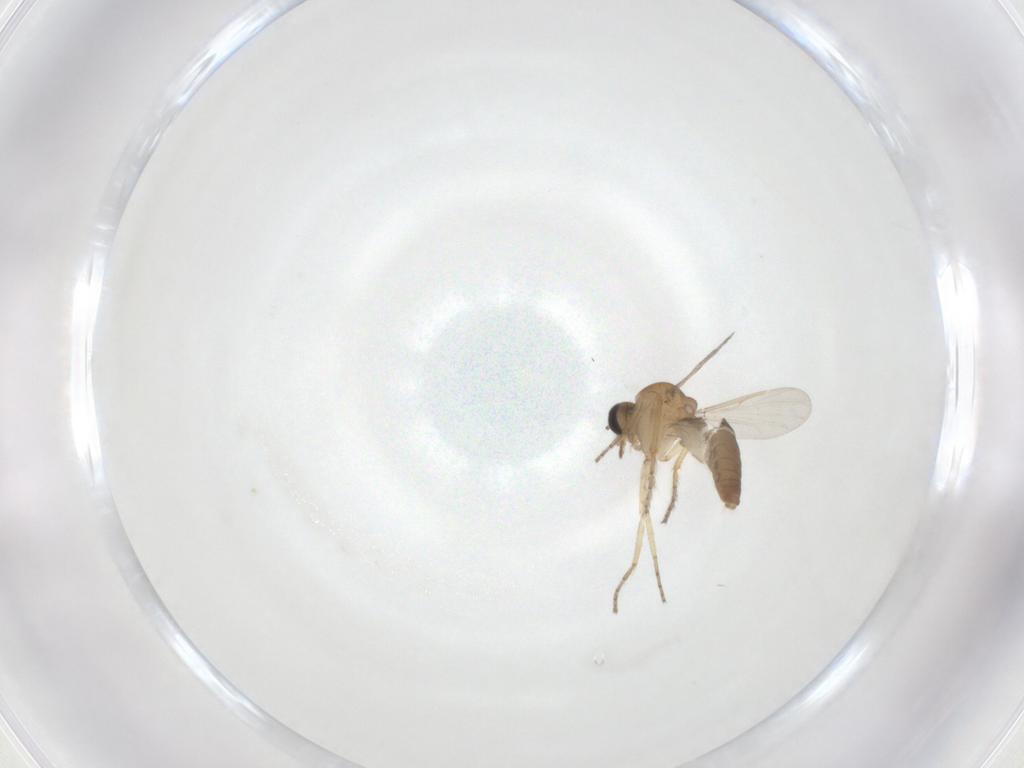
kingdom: Animalia
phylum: Arthropoda
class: Insecta
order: Diptera
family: Ceratopogonidae
